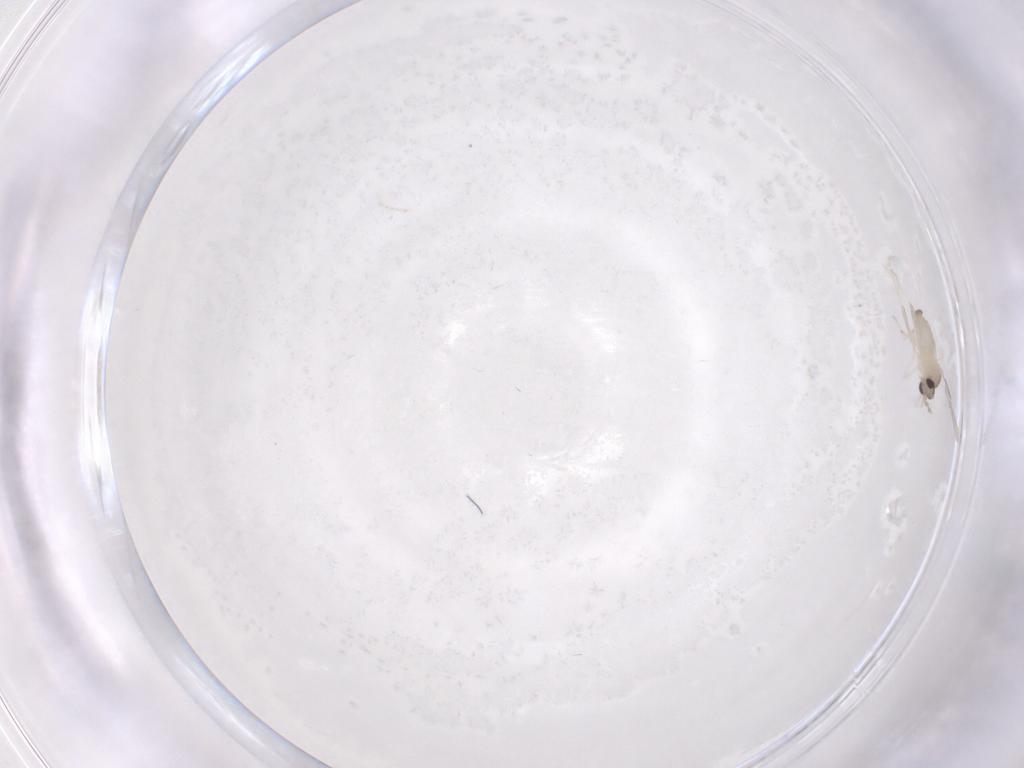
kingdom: Animalia
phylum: Arthropoda
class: Insecta
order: Diptera
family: Cecidomyiidae
